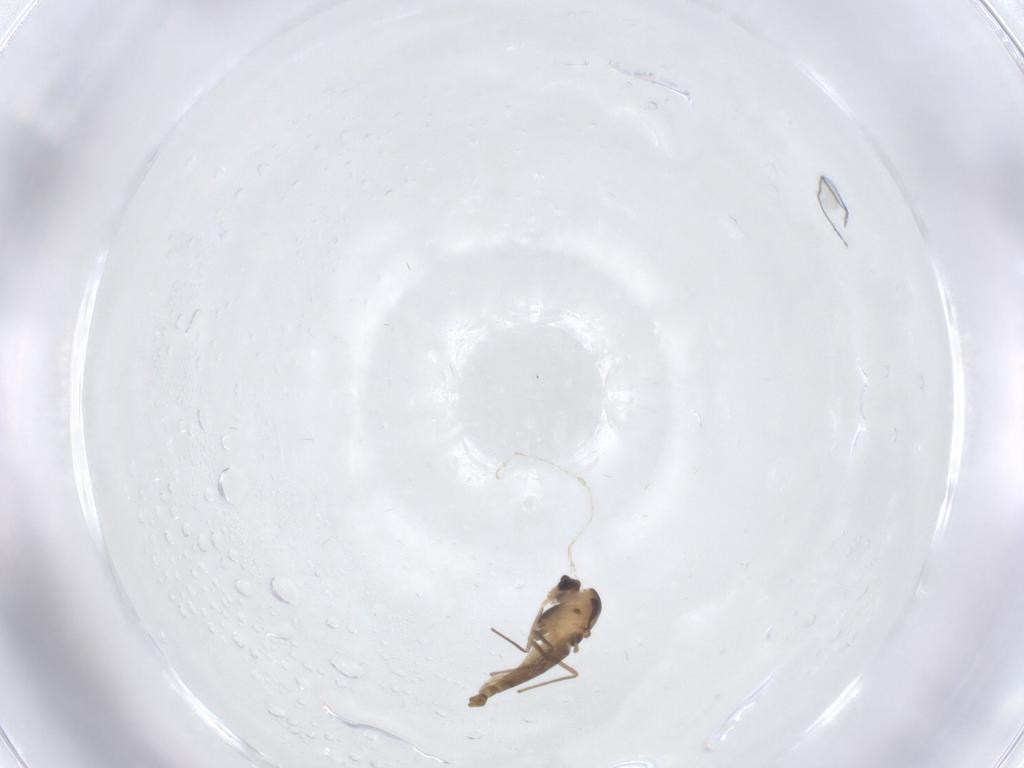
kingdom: Animalia
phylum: Arthropoda
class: Insecta
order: Diptera
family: Chironomidae
